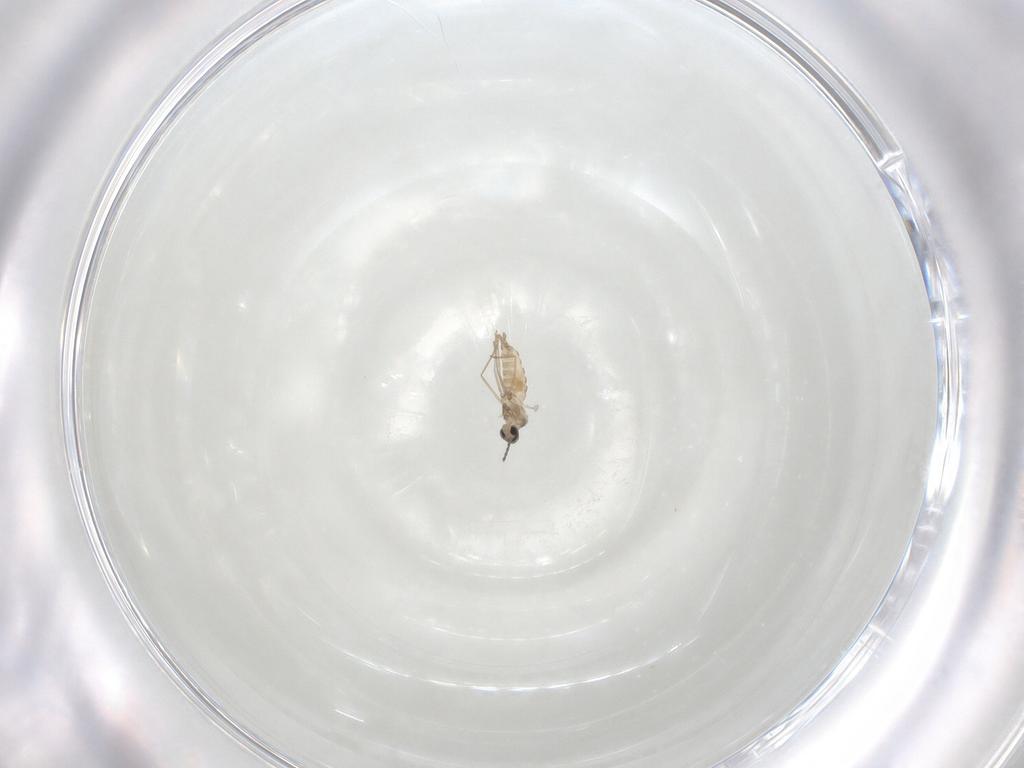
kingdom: Animalia
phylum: Arthropoda
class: Insecta
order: Diptera
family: Cecidomyiidae
